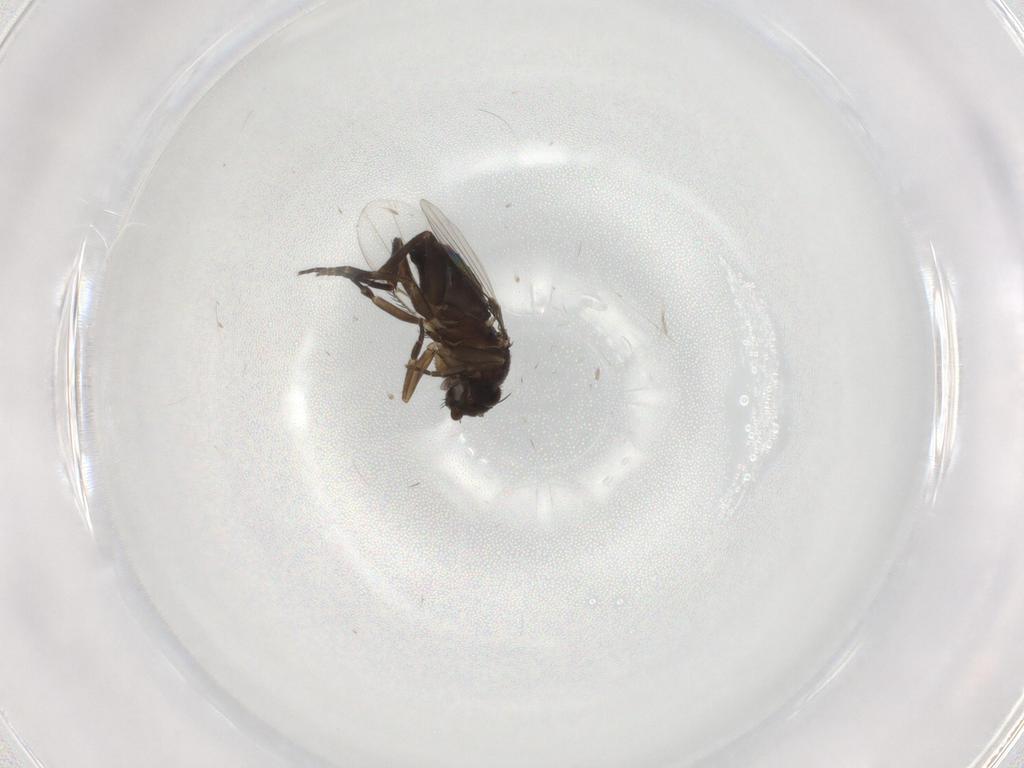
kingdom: Animalia
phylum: Arthropoda
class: Insecta
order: Diptera
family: Phoridae
